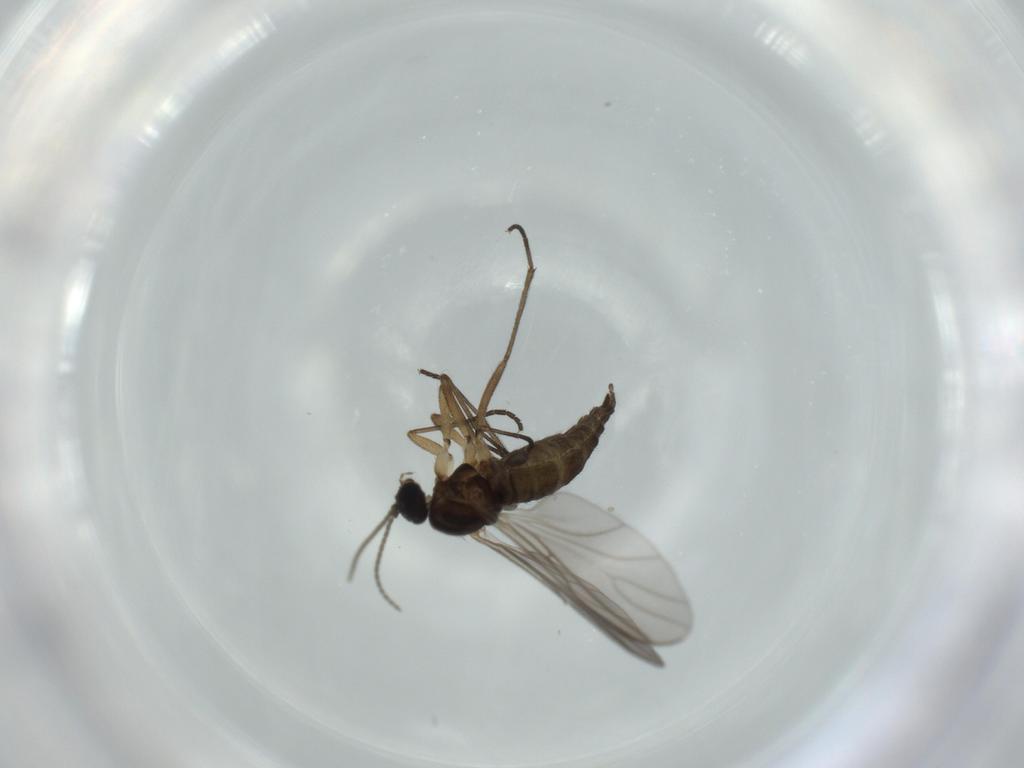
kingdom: Animalia
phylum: Arthropoda
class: Insecta
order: Diptera
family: Sciaridae
